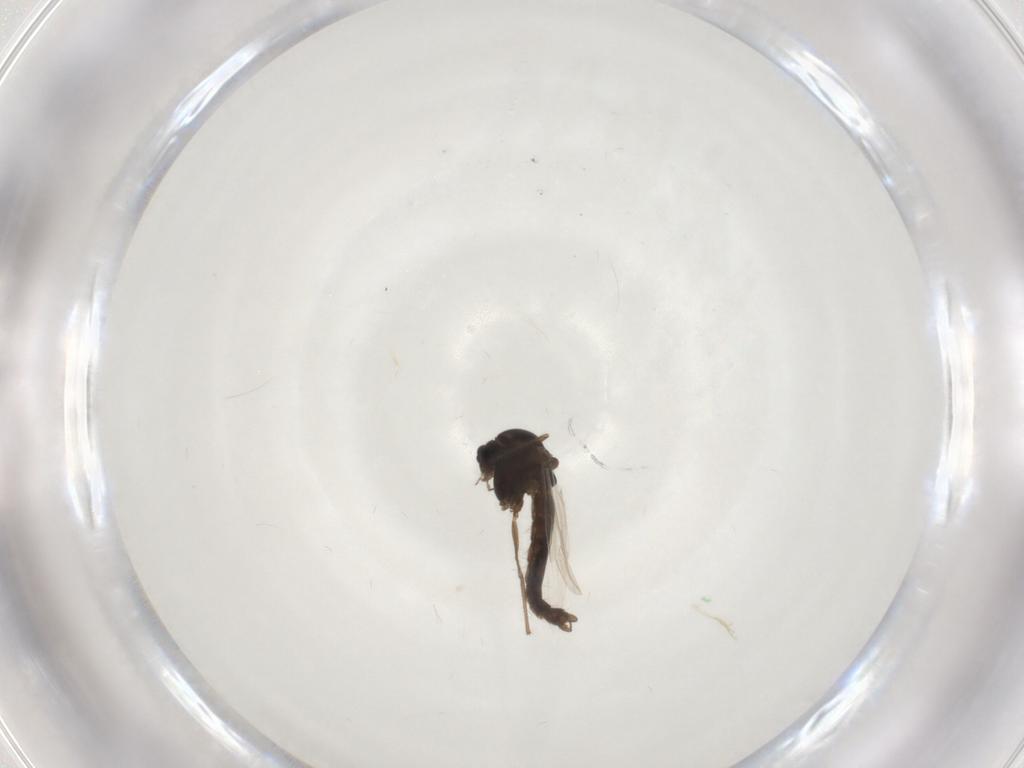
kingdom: Animalia
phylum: Arthropoda
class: Insecta
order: Diptera
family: Chironomidae
